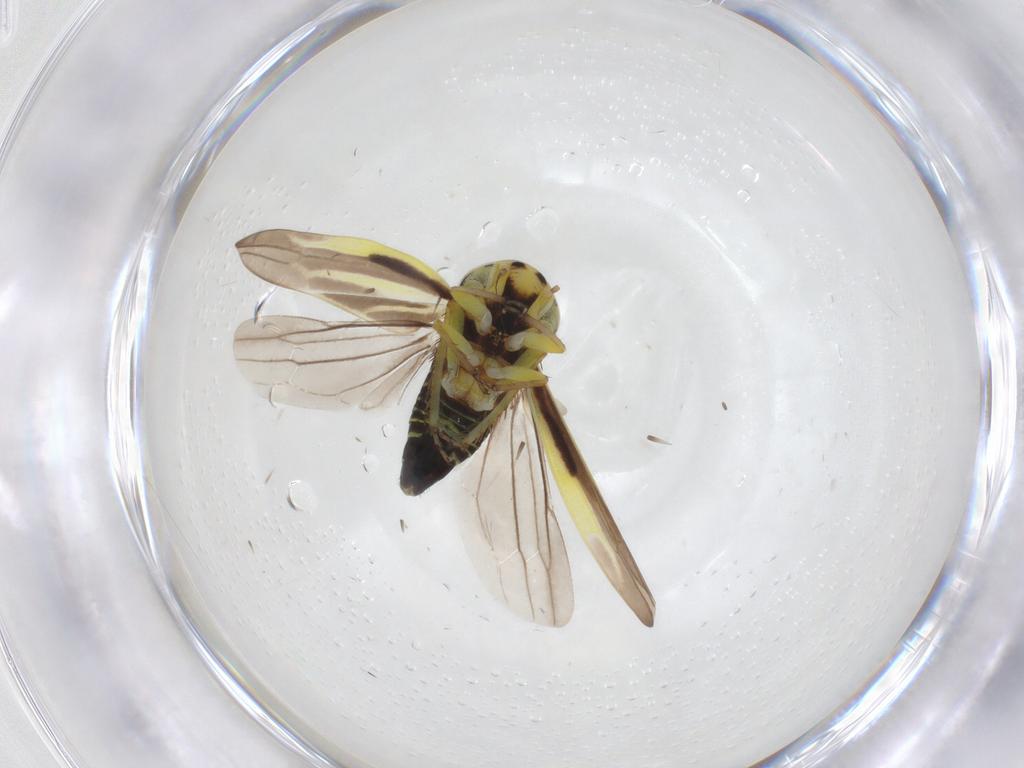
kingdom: Animalia
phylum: Arthropoda
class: Insecta
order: Hemiptera
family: Cicadellidae
